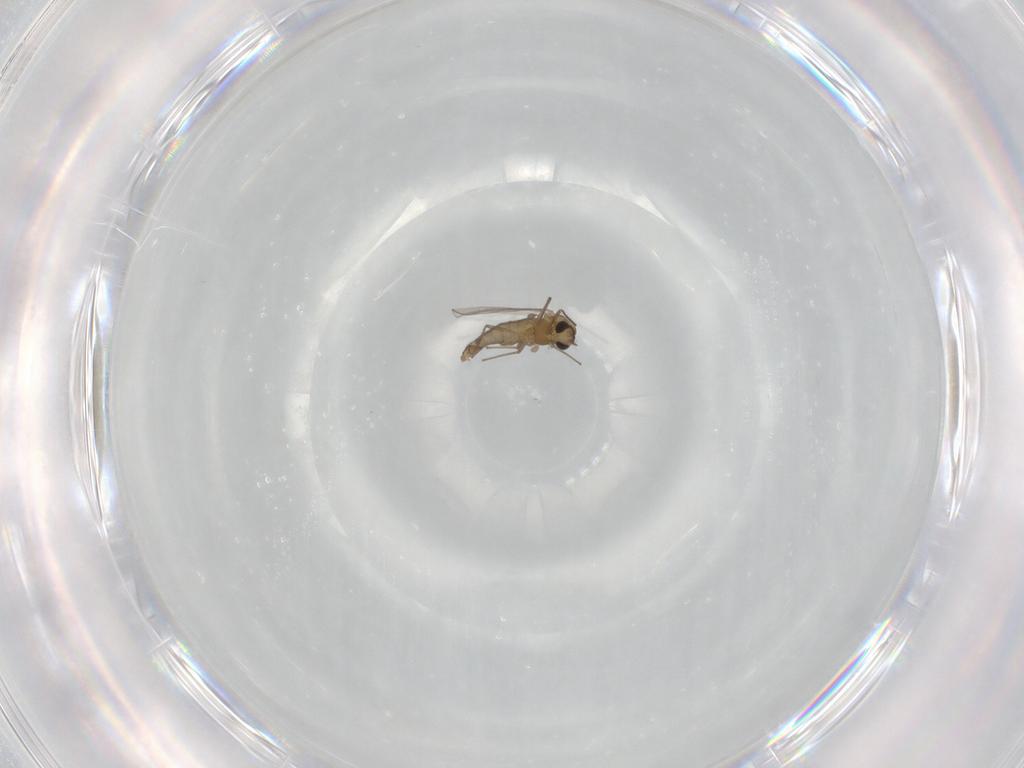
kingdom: Animalia
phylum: Arthropoda
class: Insecta
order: Diptera
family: Chironomidae
